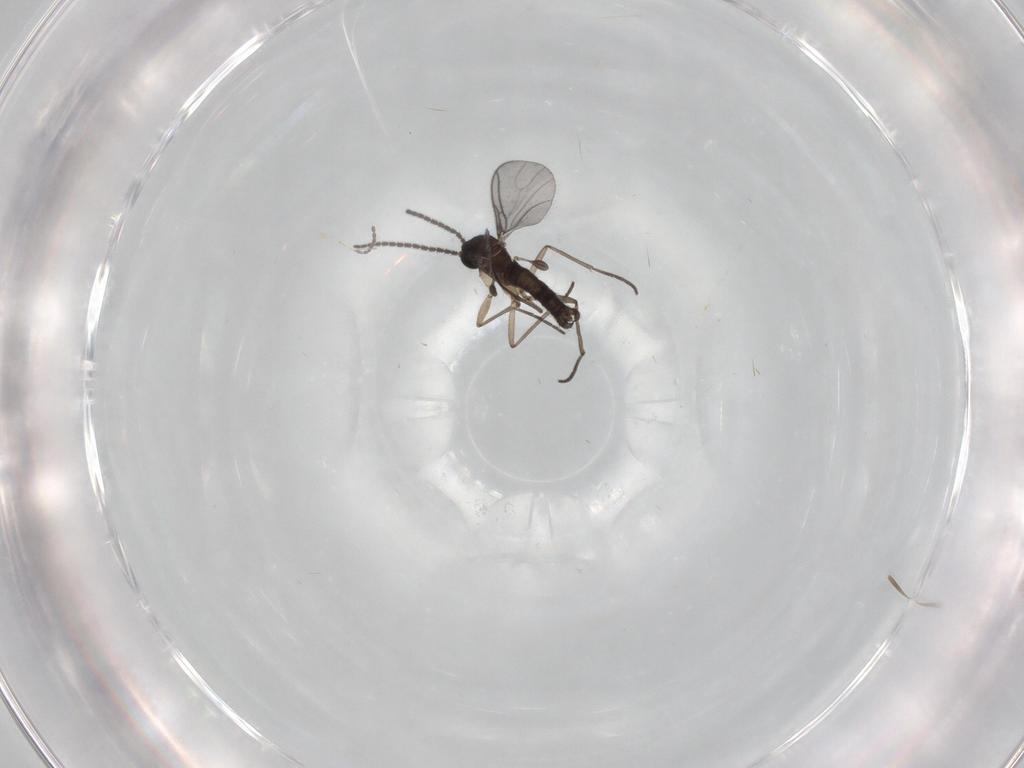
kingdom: Animalia
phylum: Arthropoda
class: Insecta
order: Diptera
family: Sciaridae
